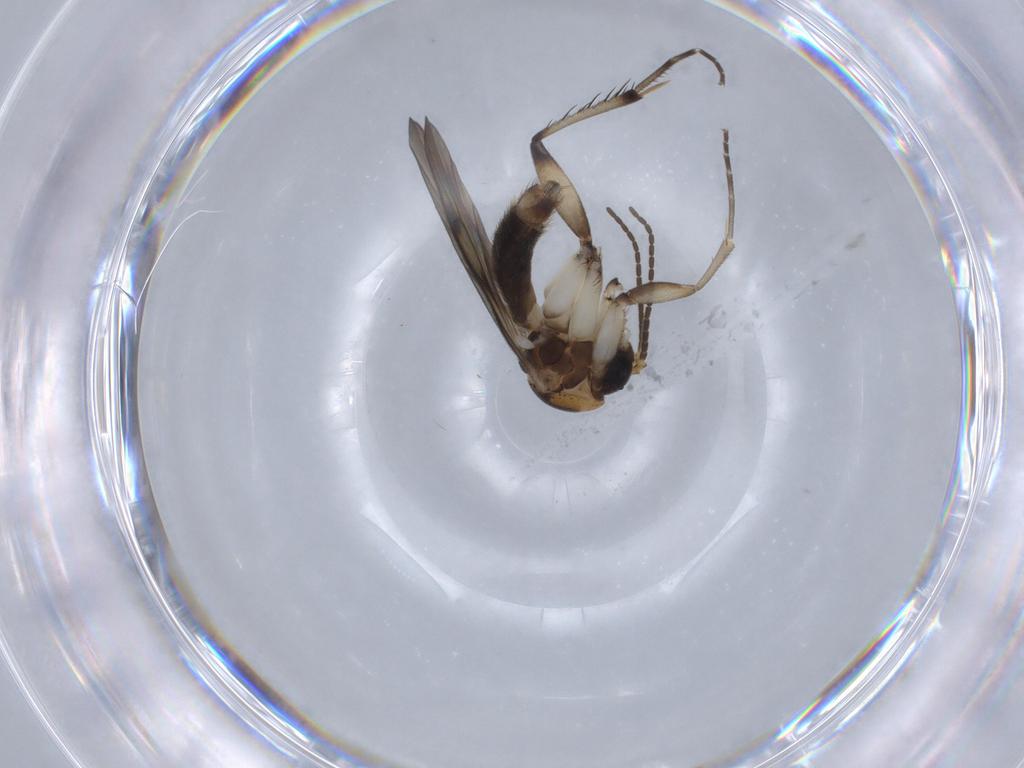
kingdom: Animalia
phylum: Arthropoda
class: Insecta
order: Diptera
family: Mycetophilidae
